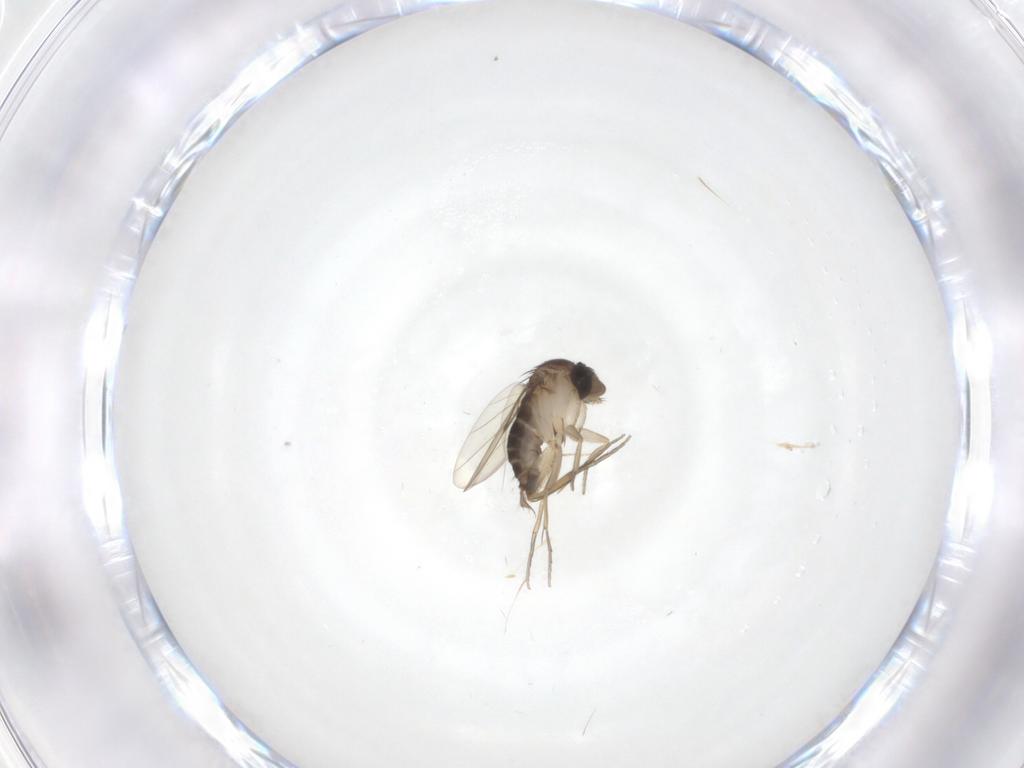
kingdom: Animalia
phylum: Arthropoda
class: Insecta
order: Diptera
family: Phoridae
